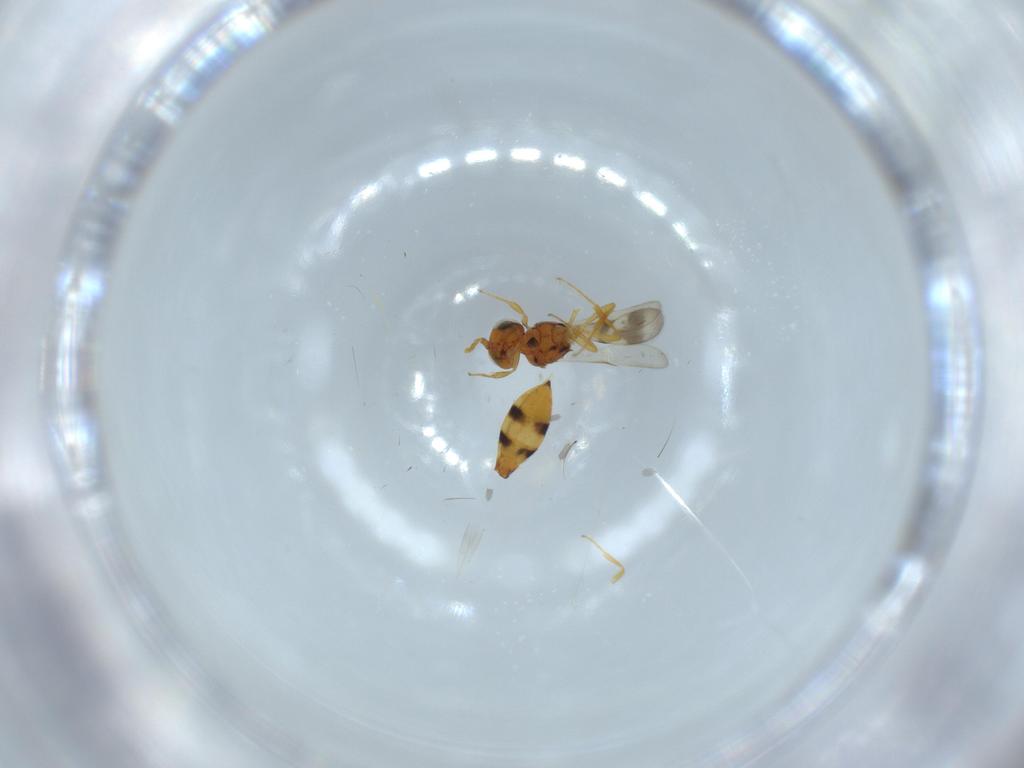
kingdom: Animalia
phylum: Arthropoda
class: Insecta
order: Hymenoptera
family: Scelionidae
